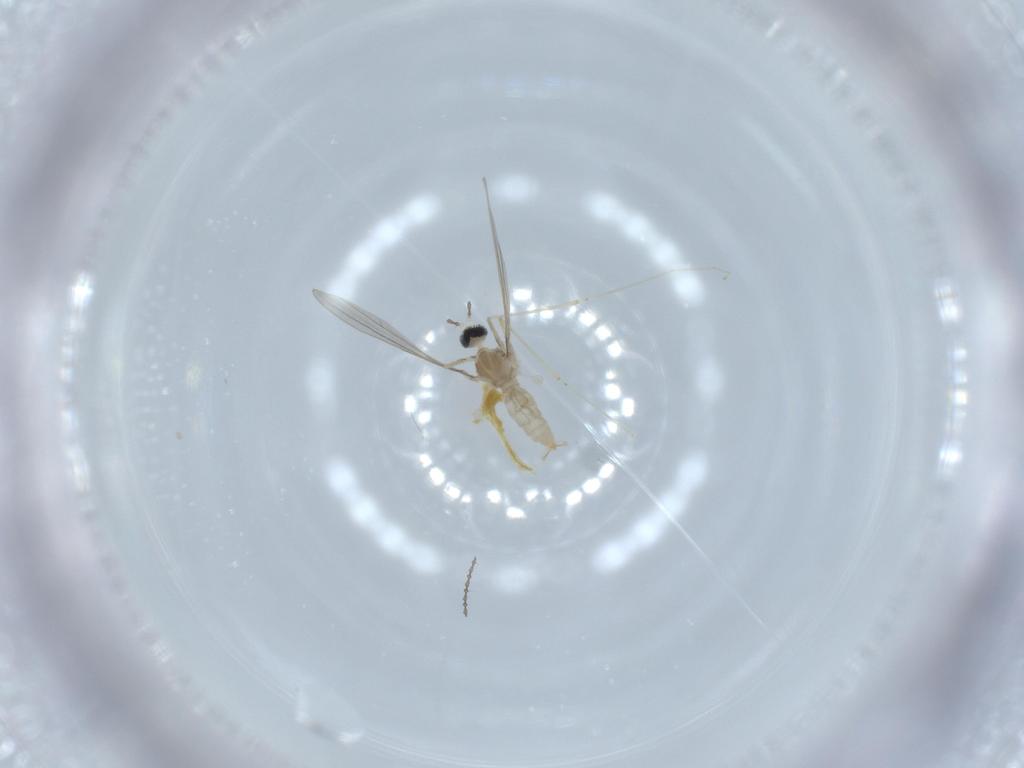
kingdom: Animalia
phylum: Arthropoda
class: Insecta
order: Diptera
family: Cecidomyiidae
